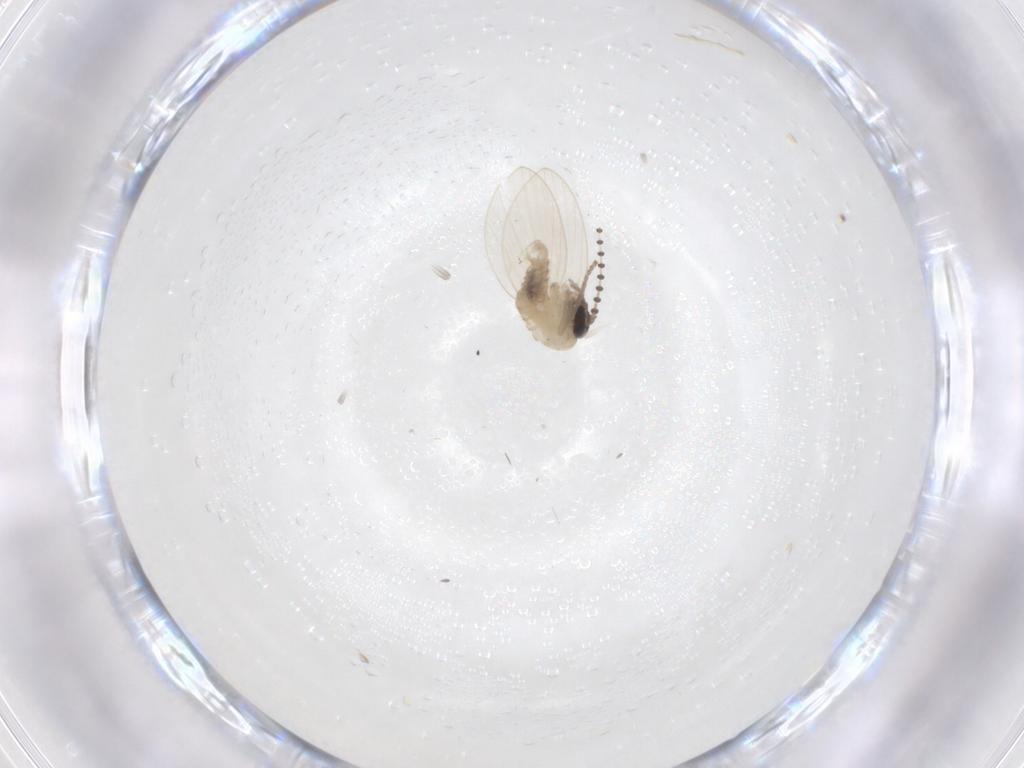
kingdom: Animalia
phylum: Arthropoda
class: Insecta
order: Diptera
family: Psychodidae
